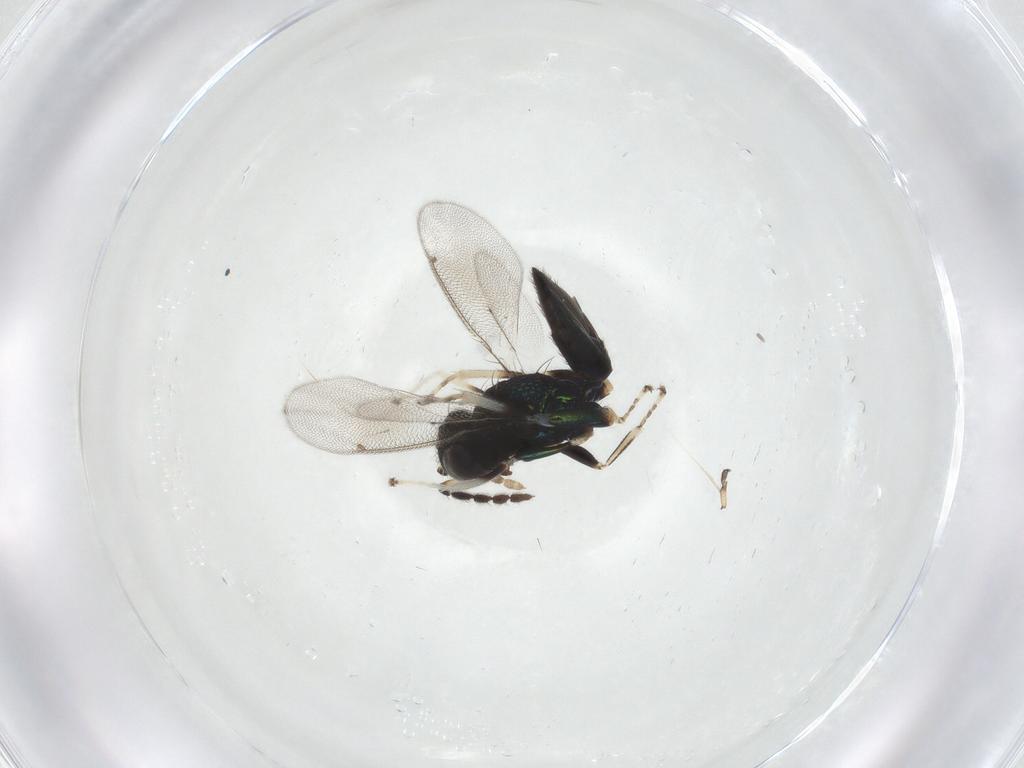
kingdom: Animalia
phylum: Arthropoda
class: Insecta
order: Hymenoptera
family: Eulophidae
